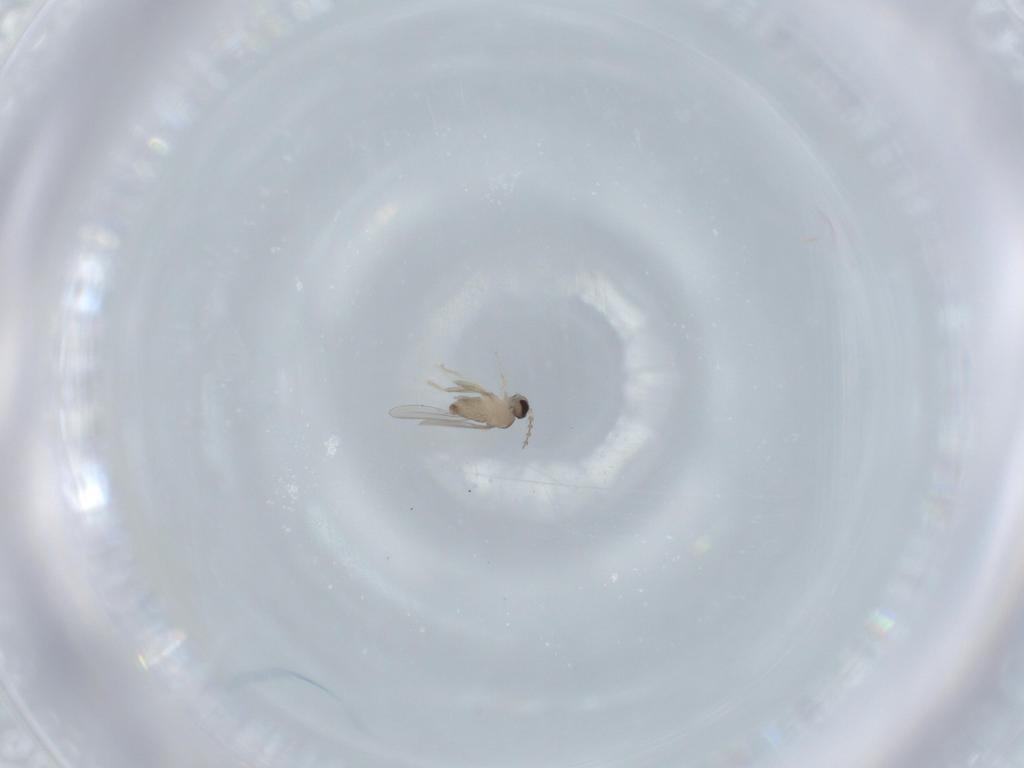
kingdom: Animalia
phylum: Arthropoda
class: Insecta
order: Diptera
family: Cecidomyiidae
